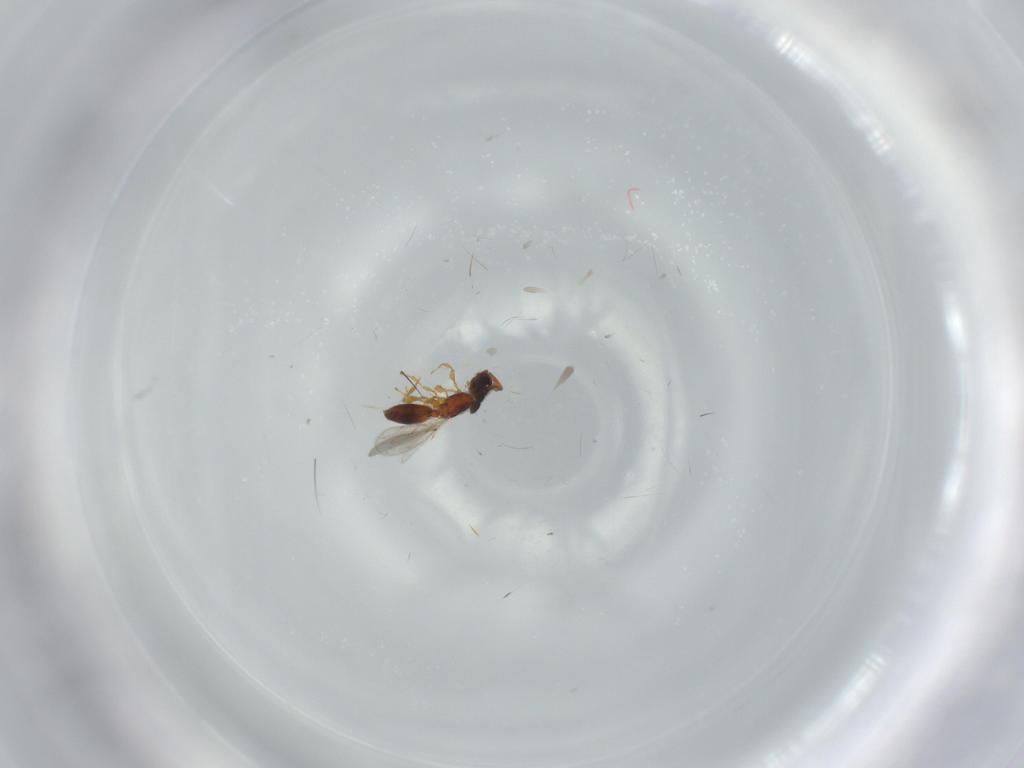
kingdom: Animalia
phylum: Arthropoda
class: Insecta
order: Hymenoptera
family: Diapriidae
